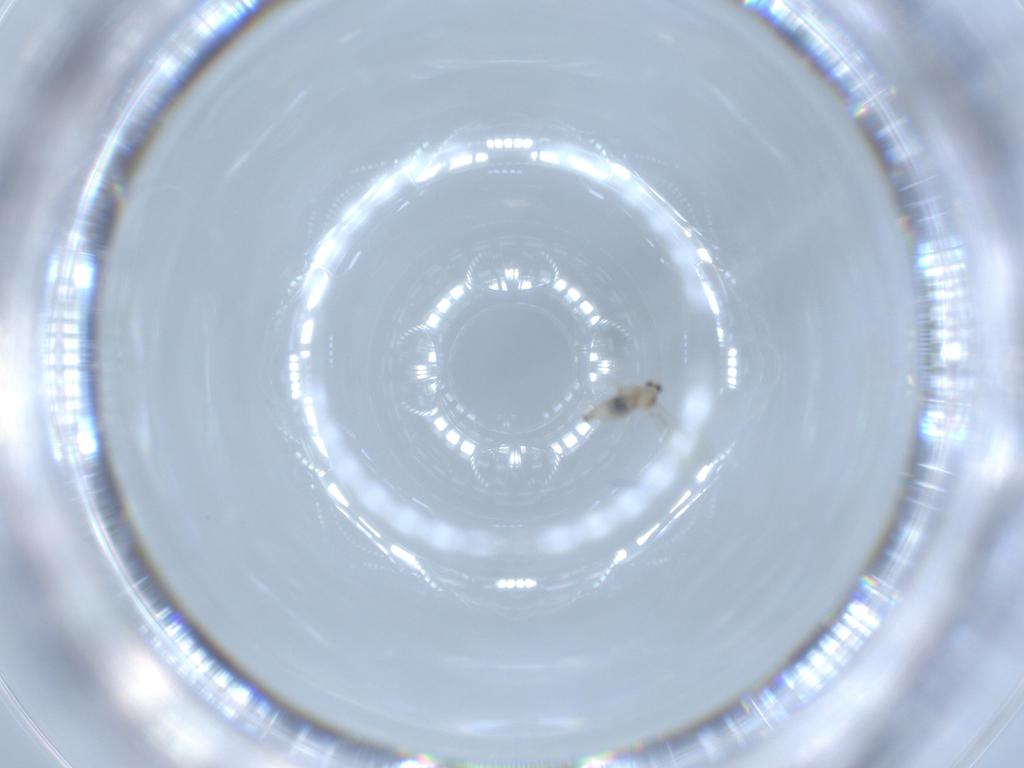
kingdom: Animalia
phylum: Arthropoda
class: Insecta
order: Diptera
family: Cecidomyiidae
